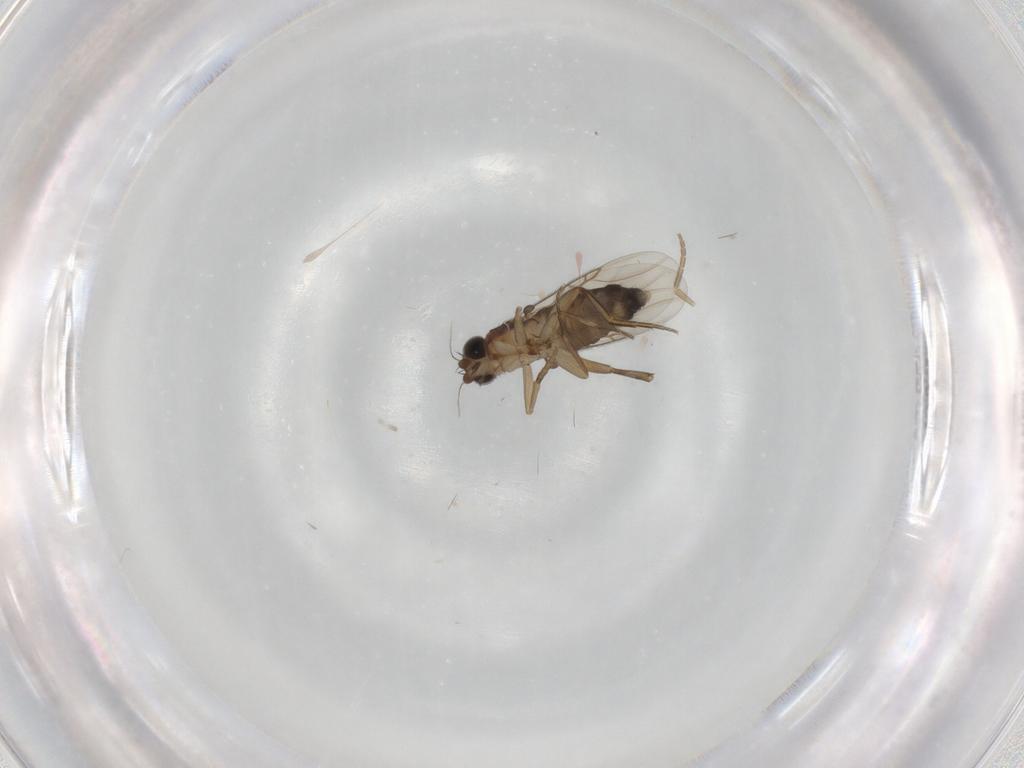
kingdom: Animalia
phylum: Arthropoda
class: Insecta
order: Diptera
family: Phoridae
